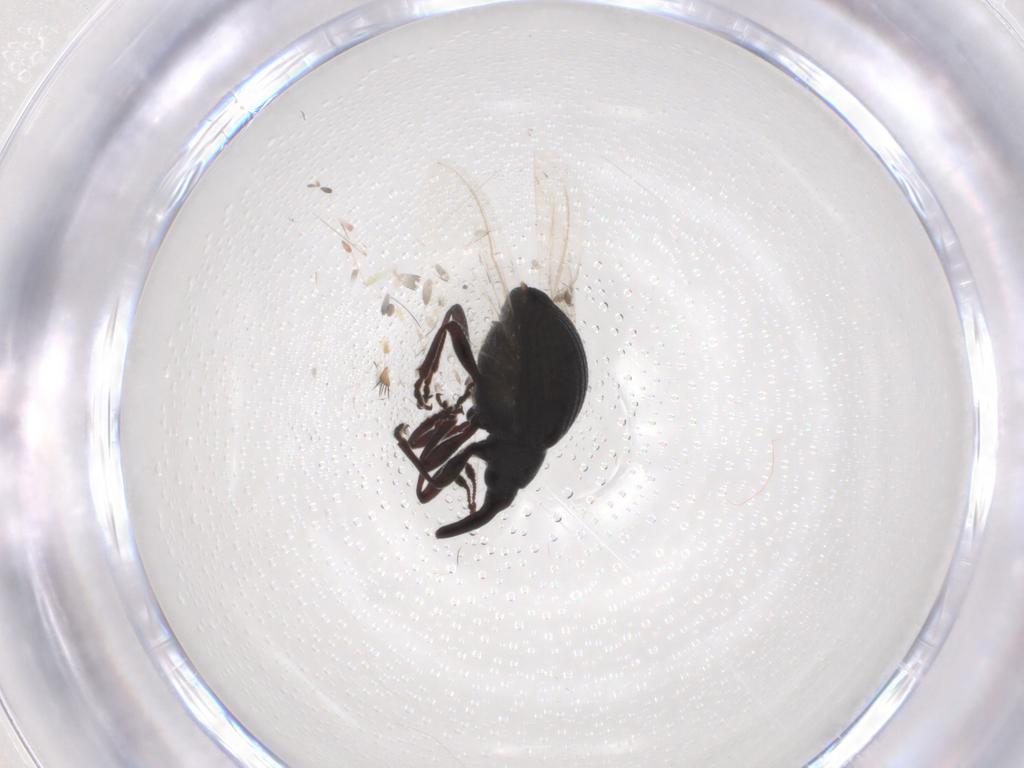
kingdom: Animalia
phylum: Arthropoda
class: Insecta
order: Coleoptera
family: Brentidae
